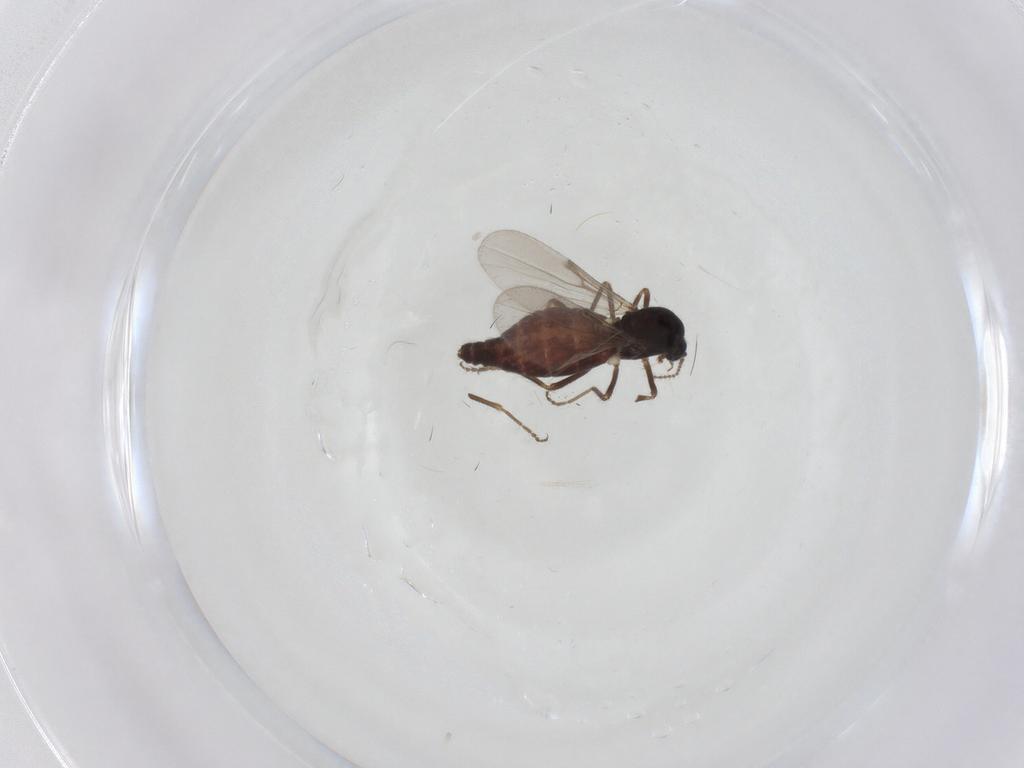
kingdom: Animalia
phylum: Arthropoda
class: Insecta
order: Diptera
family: Ceratopogonidae
